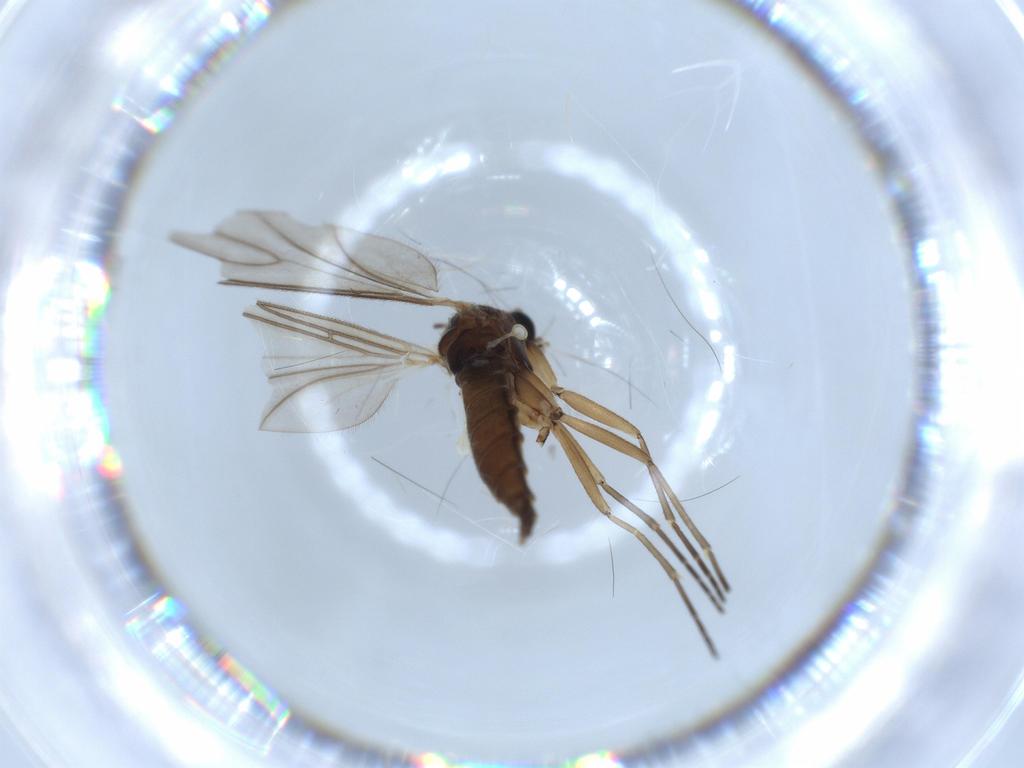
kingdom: Animalia
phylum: Arthropoda
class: Insecta
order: Diptera
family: Sciaridae
